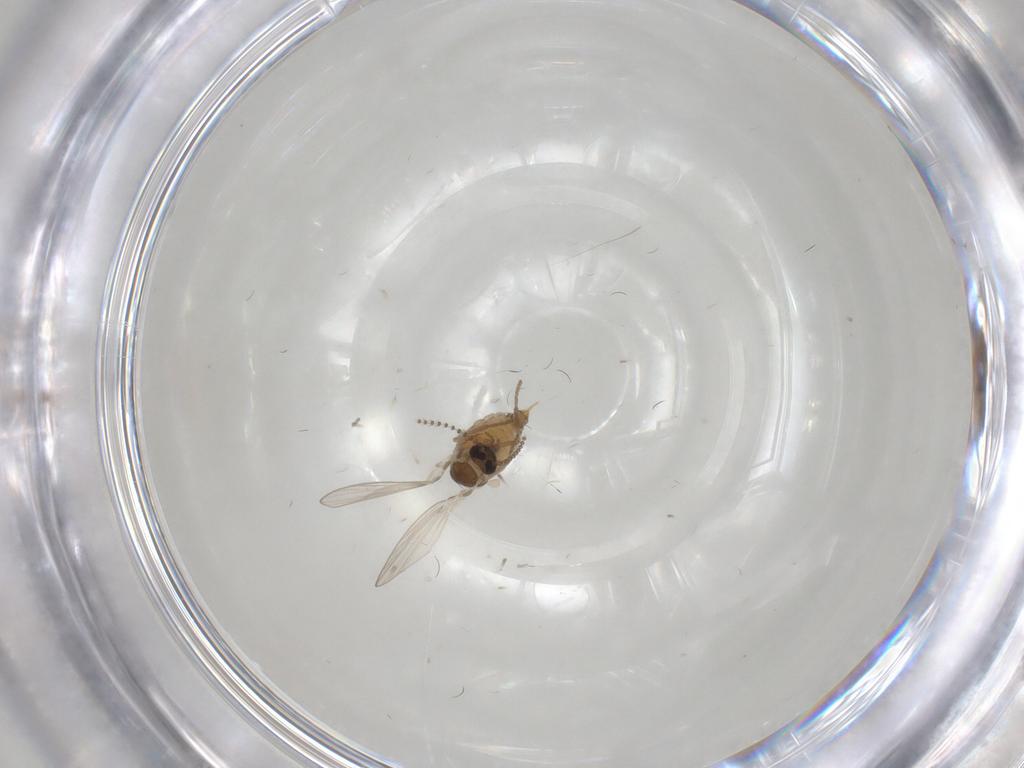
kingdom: Animalia
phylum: Arthropoda
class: Insecta
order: Diptera
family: Psychodidae
